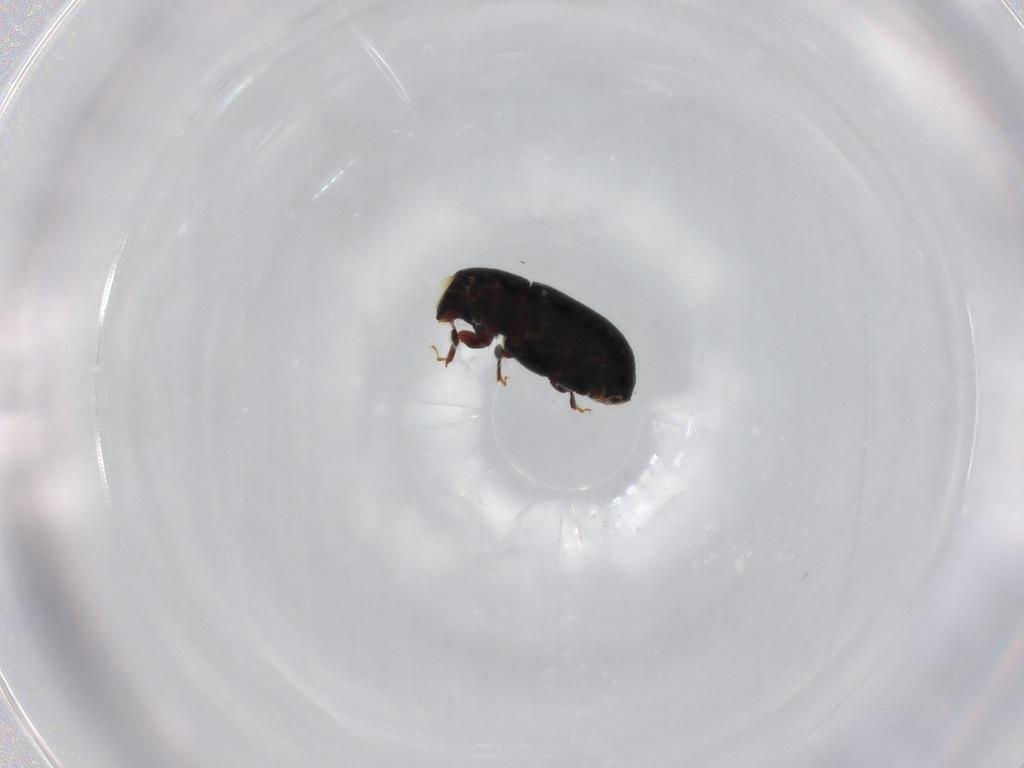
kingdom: Animalia
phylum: Arthropoda
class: Insecta
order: Coleoptera
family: Curculionidae
